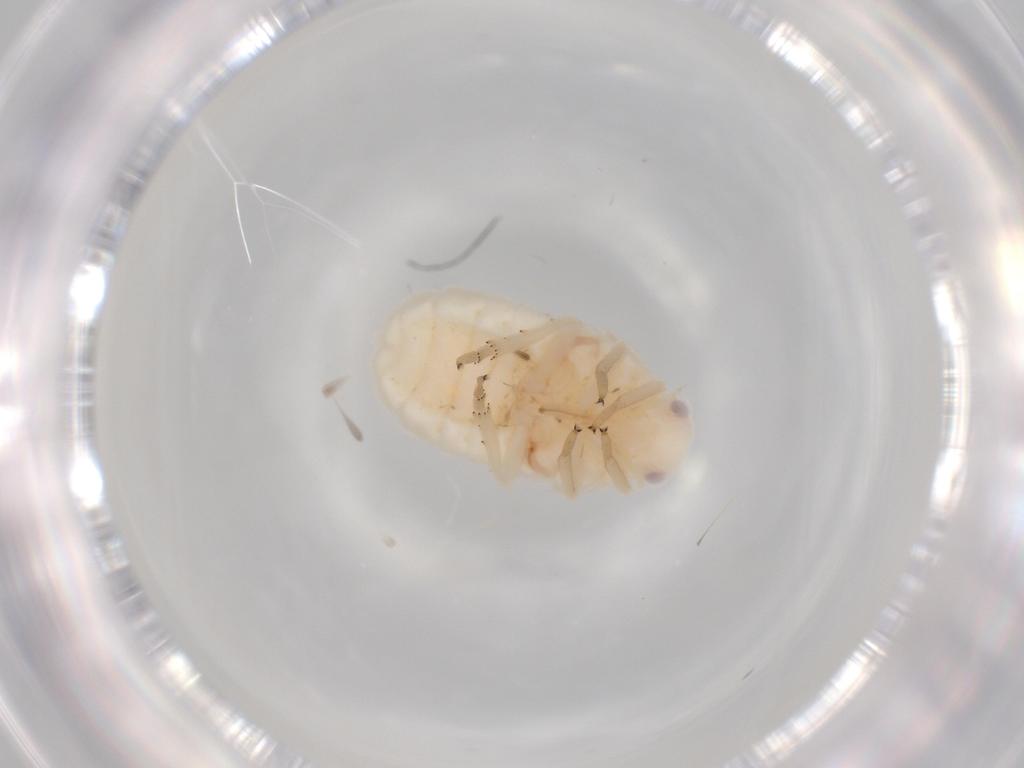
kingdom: Animalia
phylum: Arthropoda
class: Insecta
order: Hemiptera
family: Flatidae
